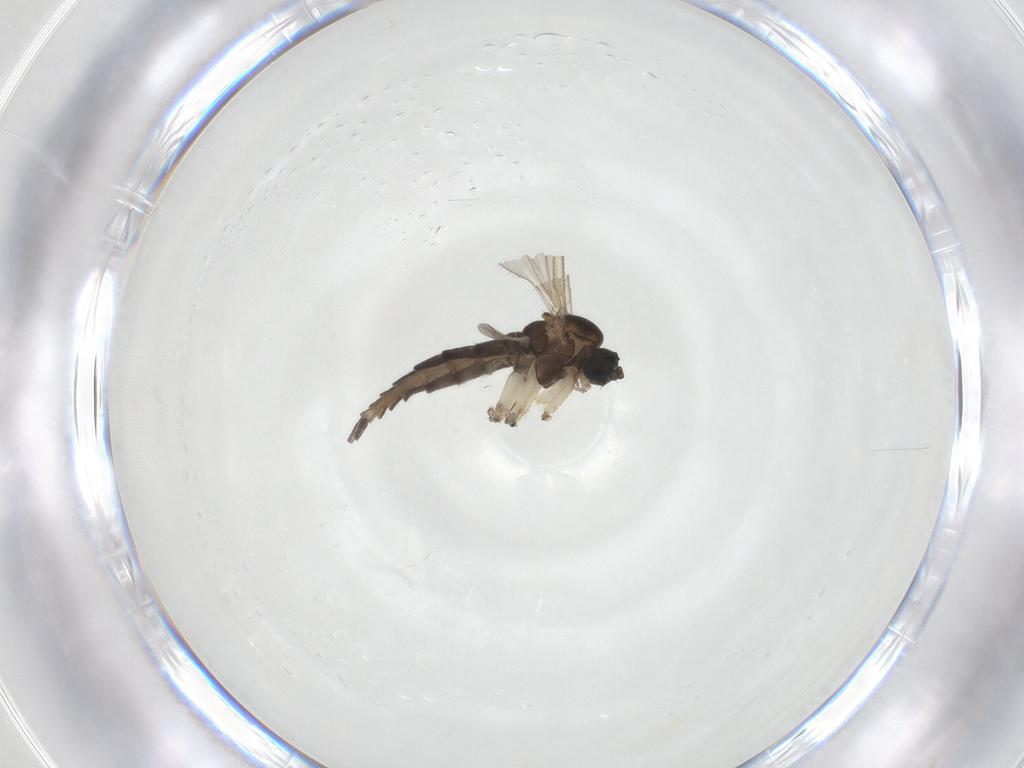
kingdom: Animalia
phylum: Arthropoda
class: Insecta
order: Diptera
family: Sciaridae
